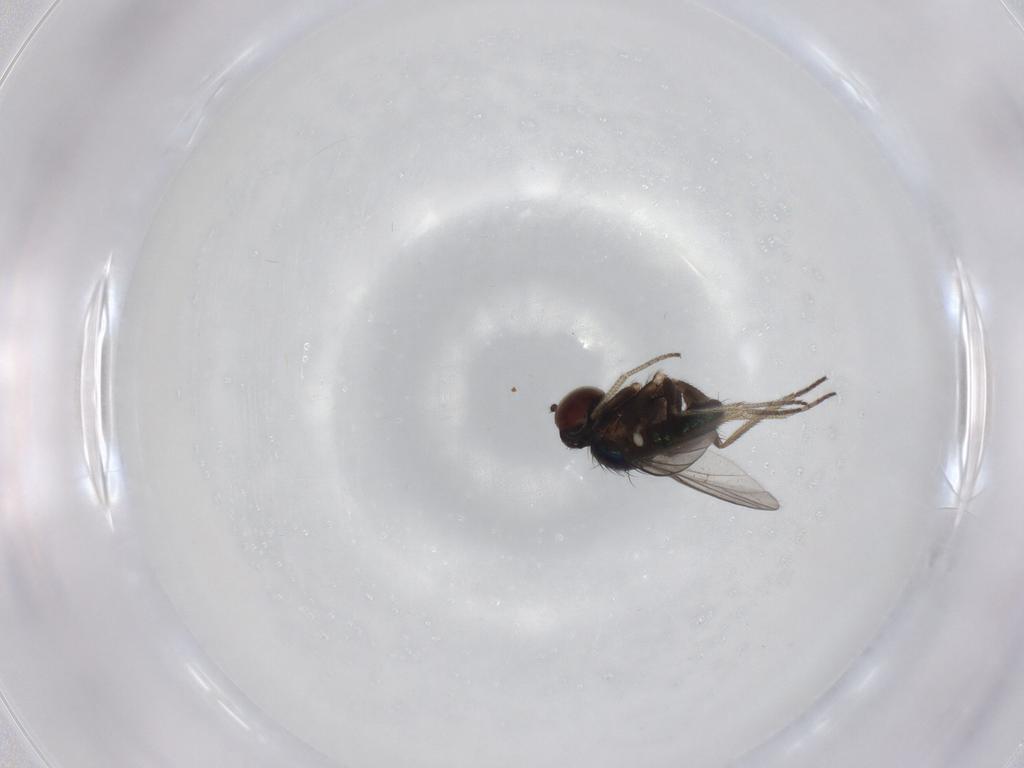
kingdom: Animalia
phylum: Arthropoda
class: Insecta
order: Diptera
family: Dolichopodidae
